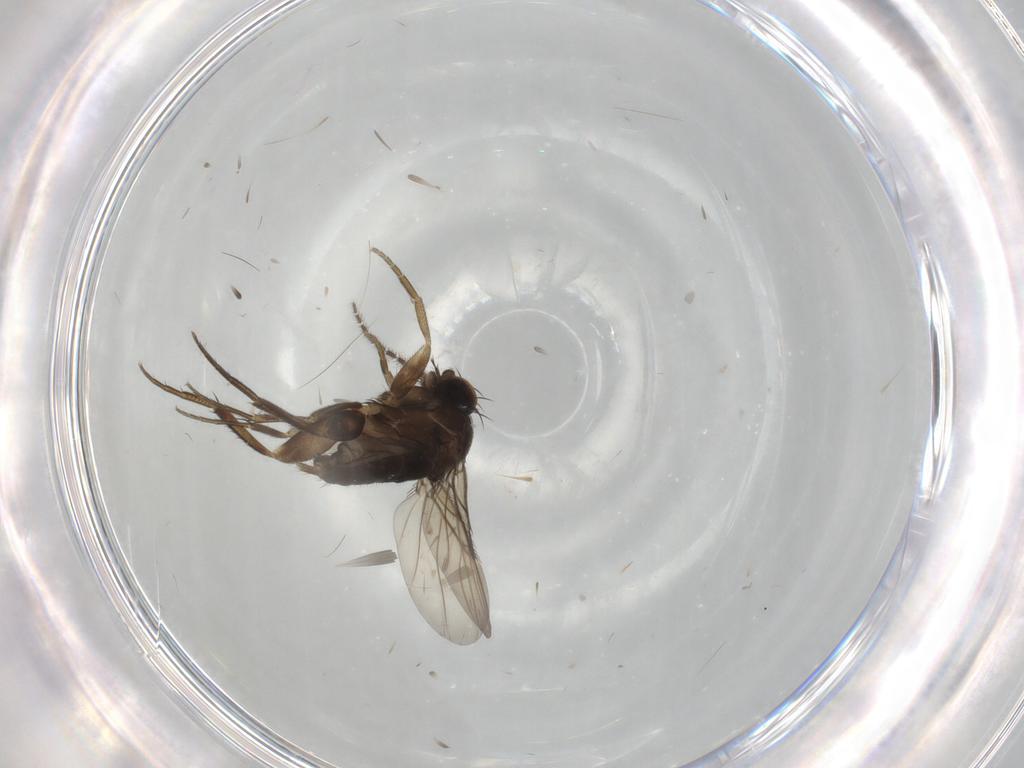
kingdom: Animalia
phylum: Arthropoda
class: Insecta
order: Diptera
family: Phoridae
